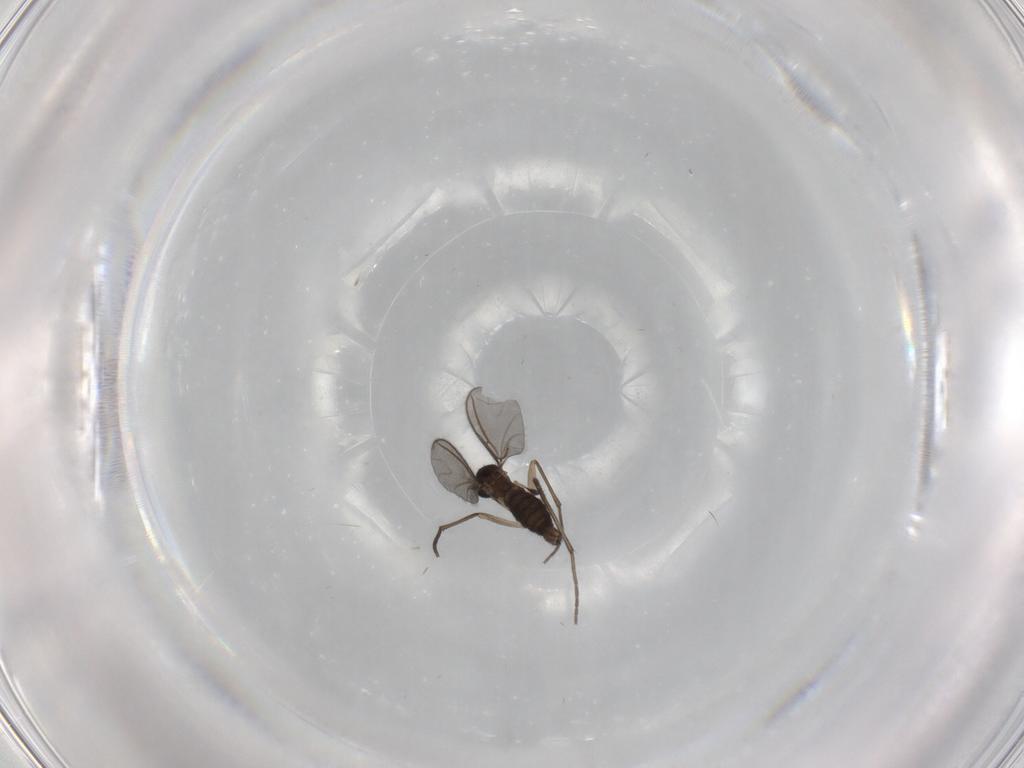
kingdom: Animalia
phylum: Arthropoda
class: Insecta
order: Diptera
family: Sciaridae
